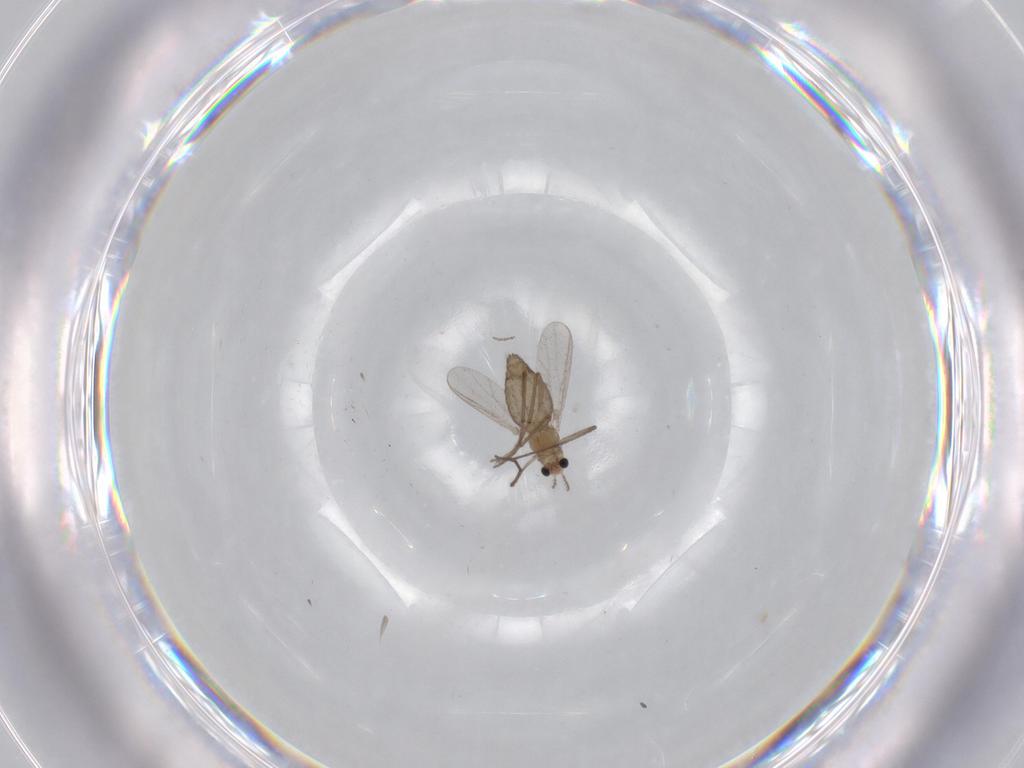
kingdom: Animalia
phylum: Arthropoda
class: Insecta
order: Diptera
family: Chironomidae
